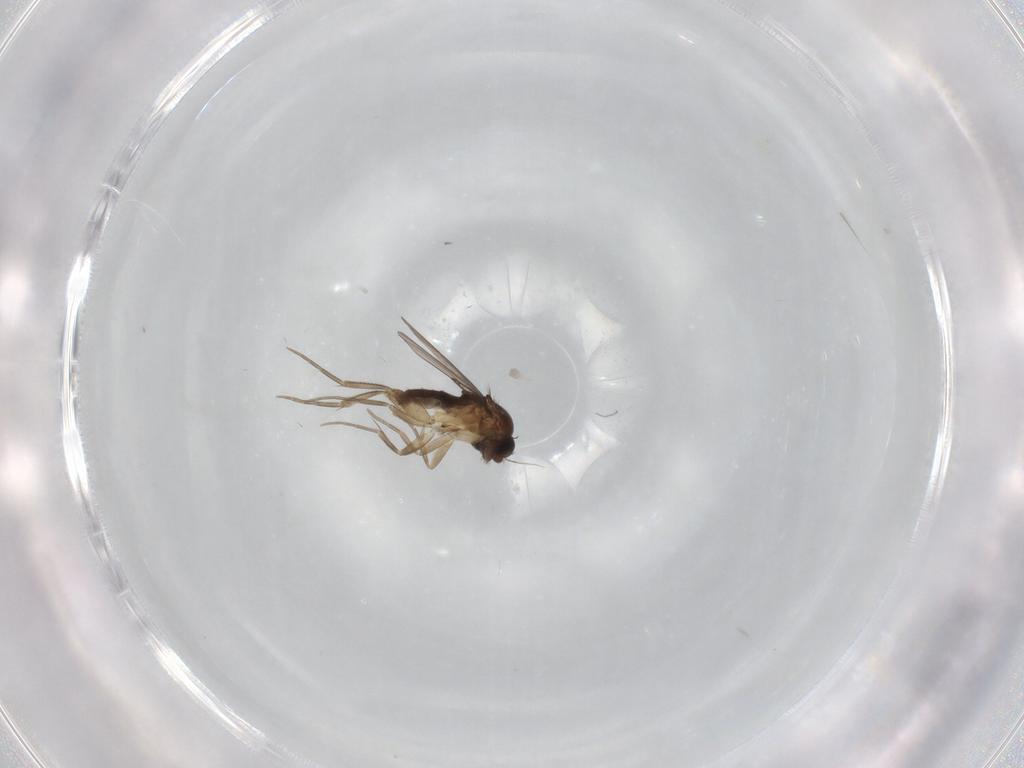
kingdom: Animalia
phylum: Arthropoda
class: Insecta
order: Diptera
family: Phoridae
